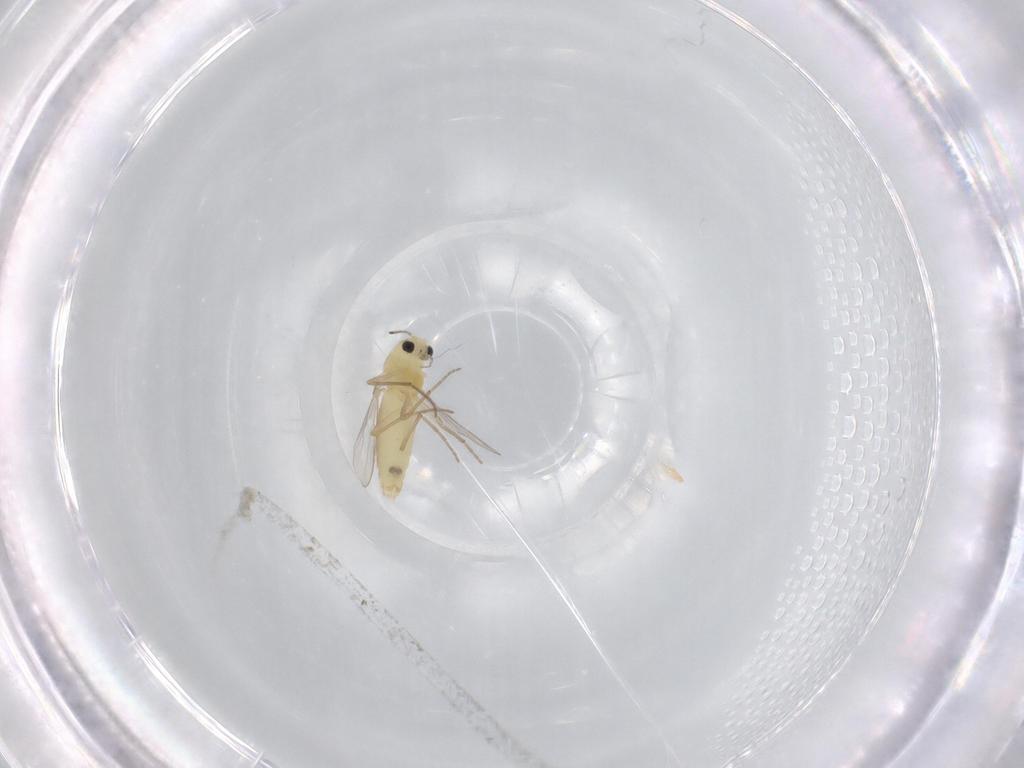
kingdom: Animalia
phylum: Arthropoda
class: Insecta
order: Diptera
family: Chironomidae
